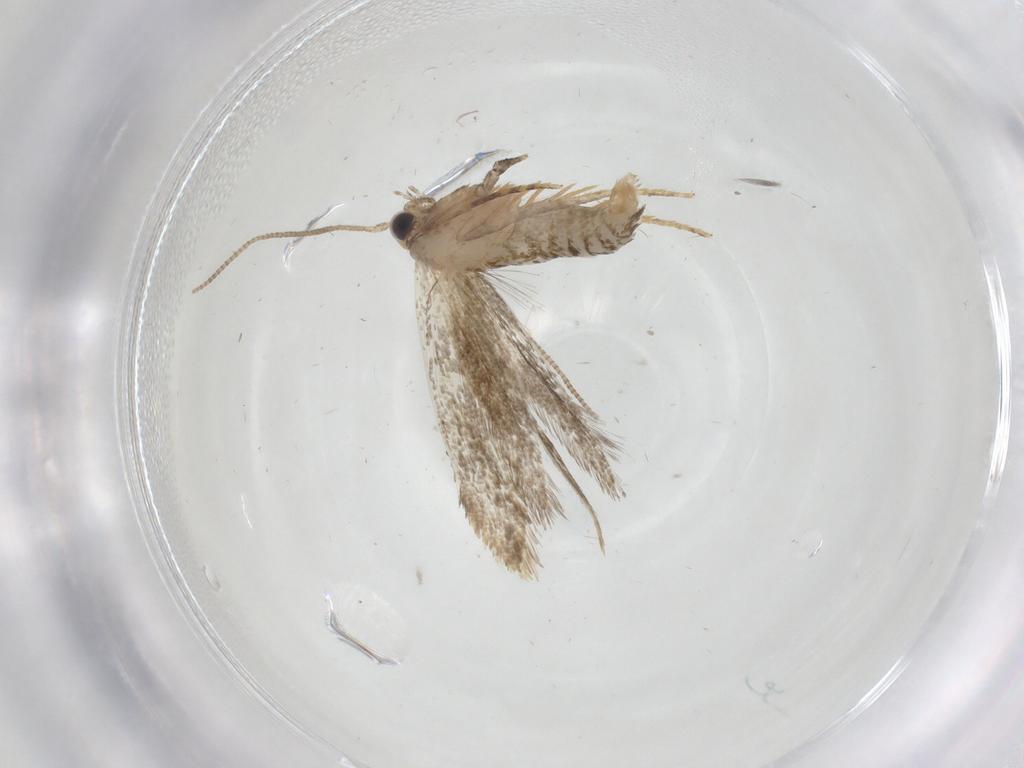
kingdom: Animalia
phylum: Arthropoda
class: Insecta
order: Lepidoptera
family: Tineidae
